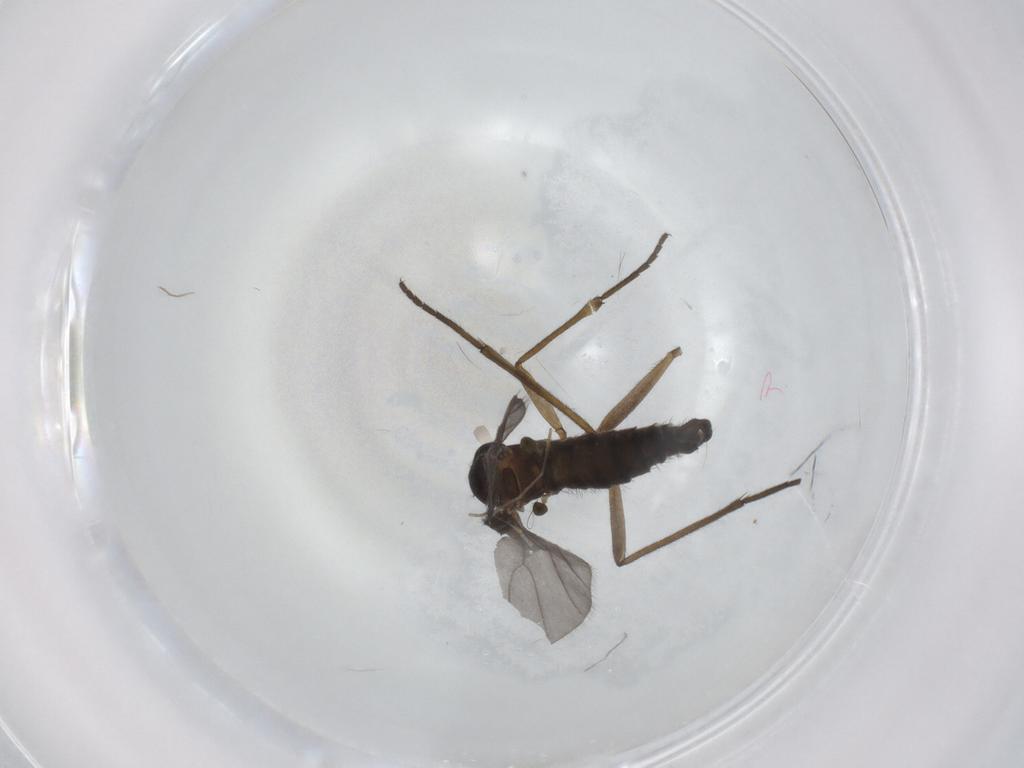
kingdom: Animalia
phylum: Arthropoda
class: Insecta
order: Diptera
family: Sciaridae
